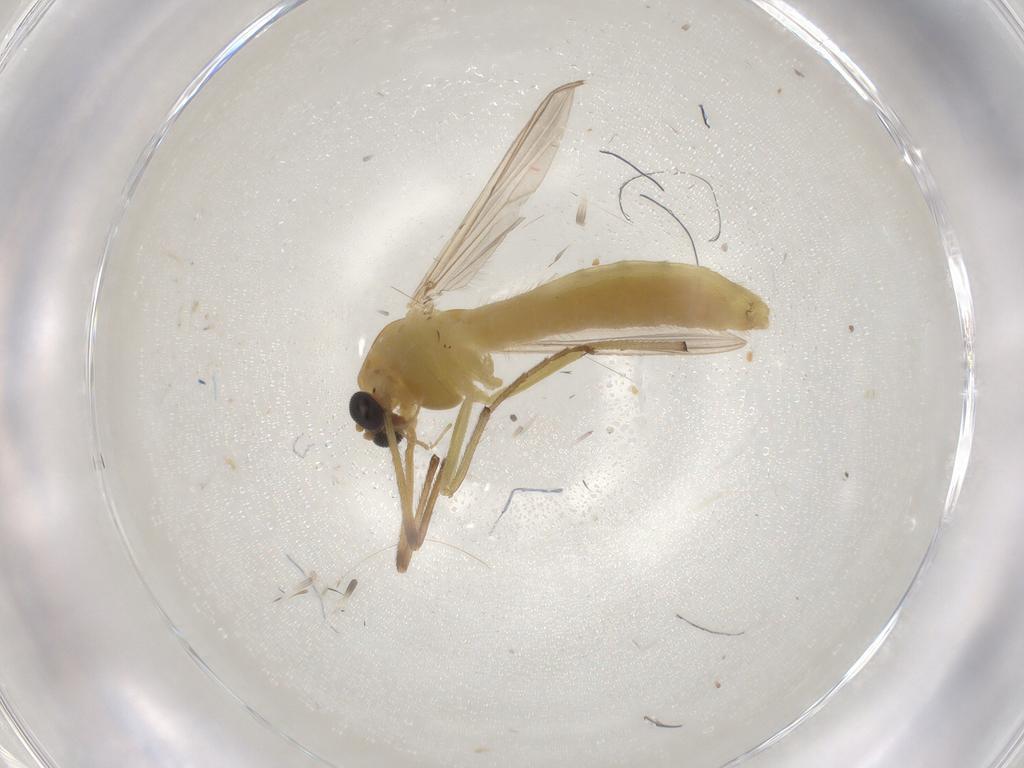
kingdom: Animalia
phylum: Arthropoda
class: Insecta
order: Diptera
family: Chironomidae
